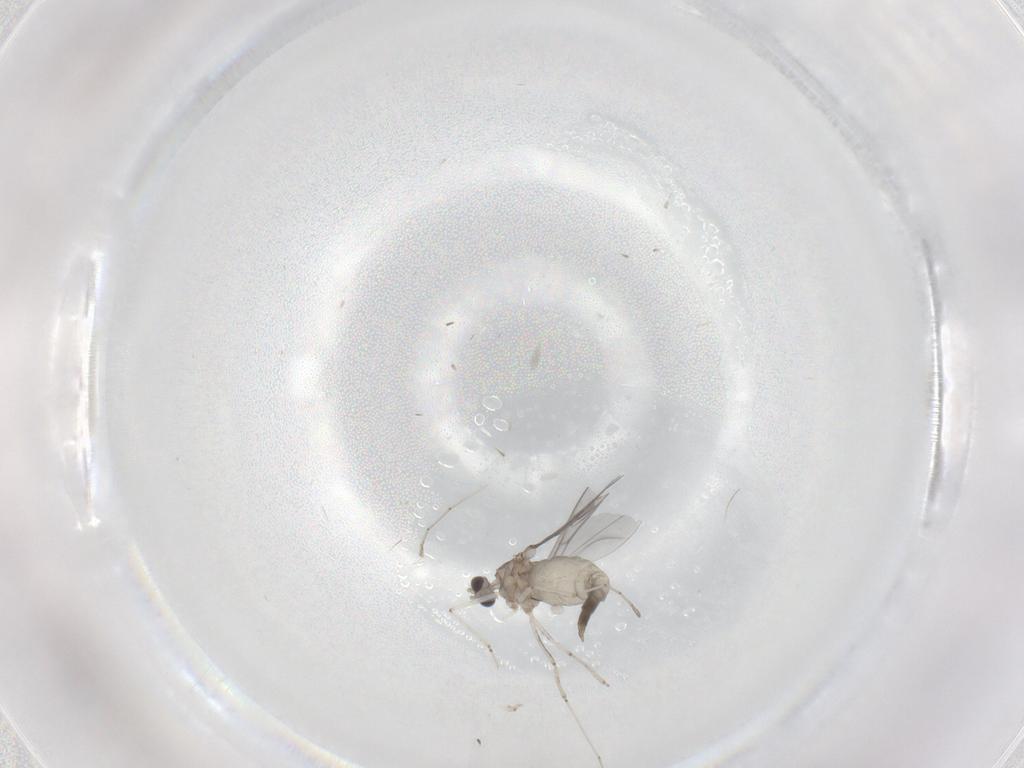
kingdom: Animalia
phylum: Arthropoda
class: Insecta
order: Diptera
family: Cecidomyiidae
